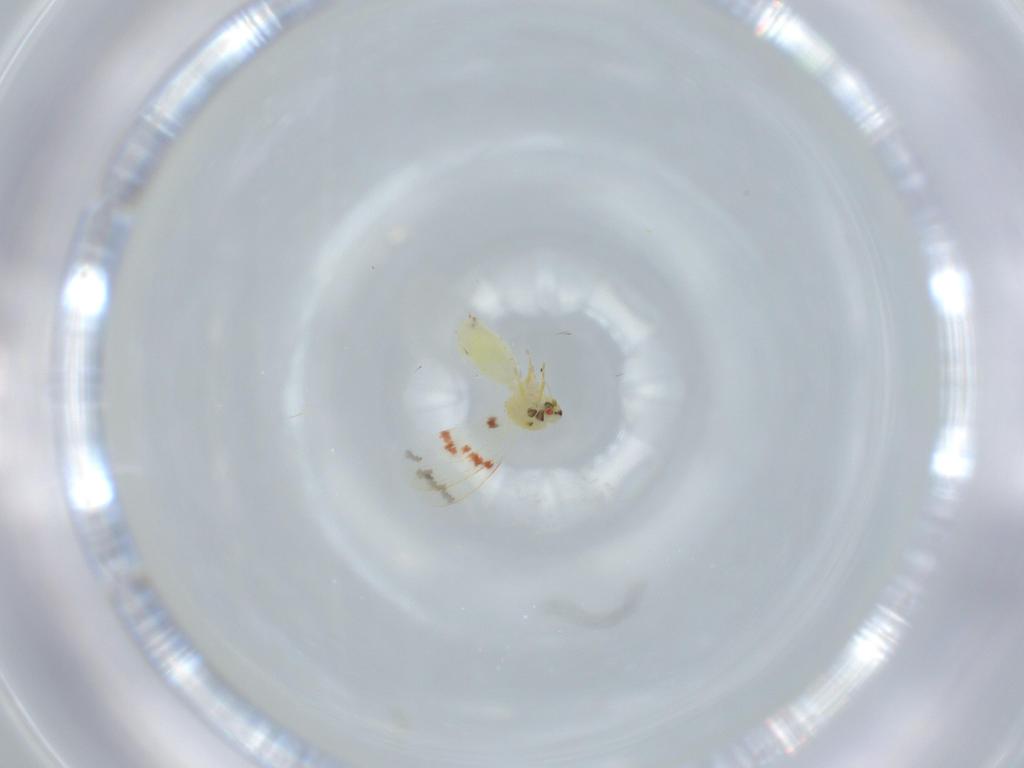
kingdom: Animalia
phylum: Arthropoda
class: Insecta
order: Hemiptera
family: Aleyrodidae
